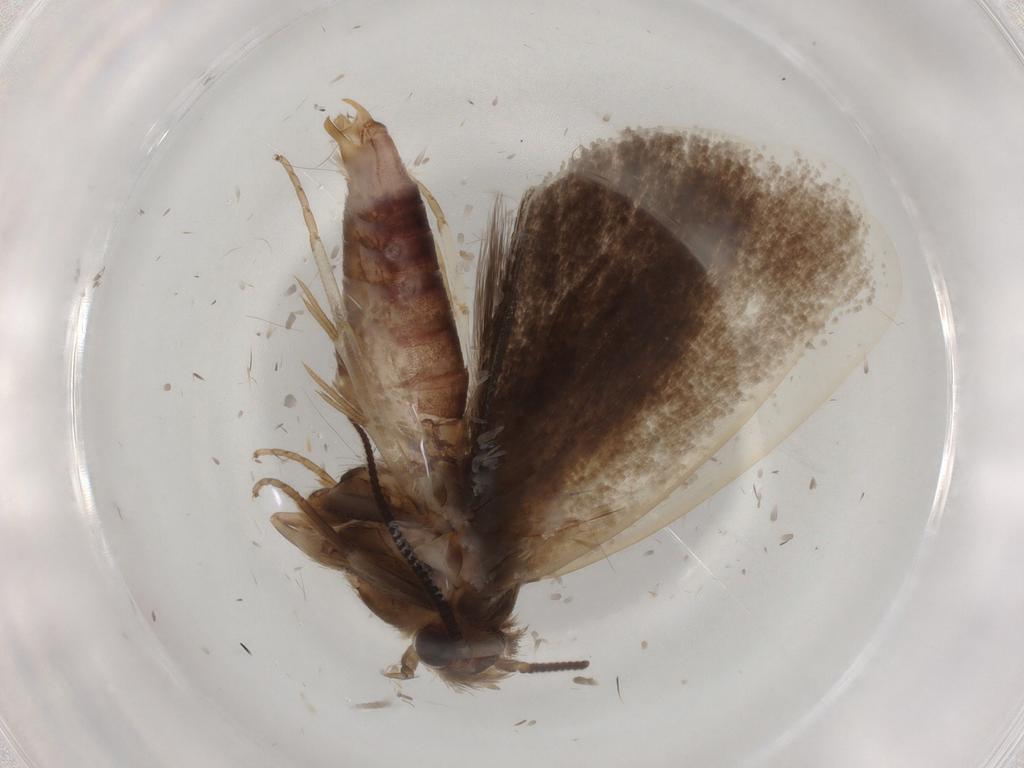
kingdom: Animalia
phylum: Arthropoda
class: Insecta
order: Lepidoptera
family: Tineidae
